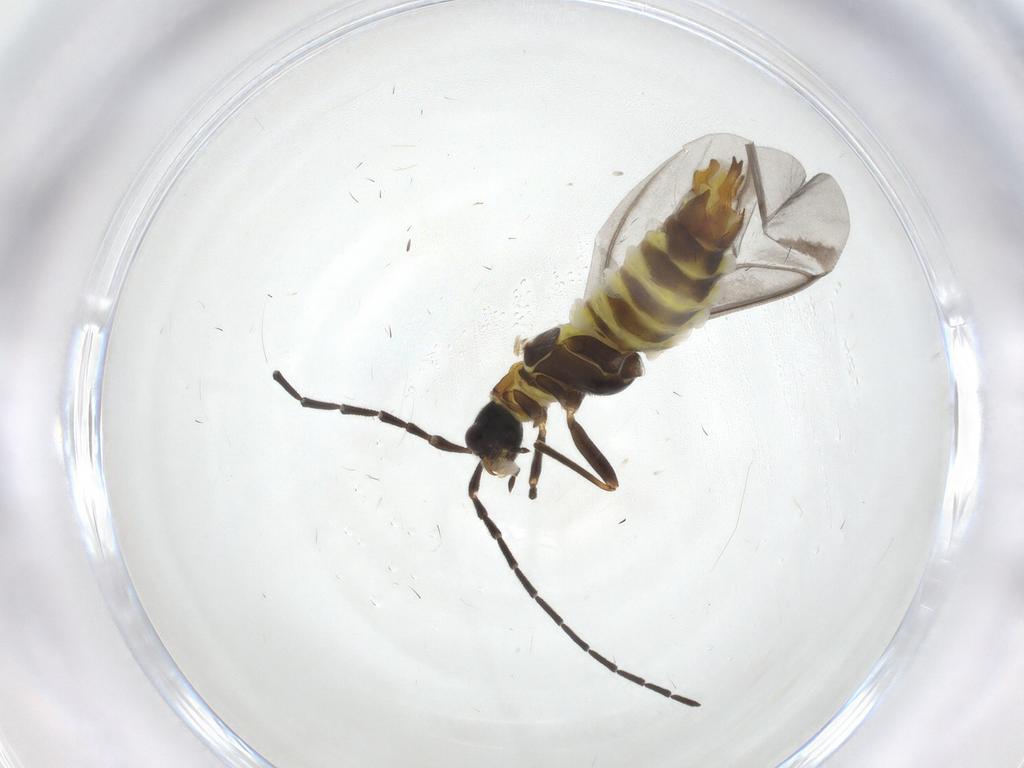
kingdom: Animalia
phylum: Arthropoda
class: Insecta
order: Coleoptera
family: Cantharidae
